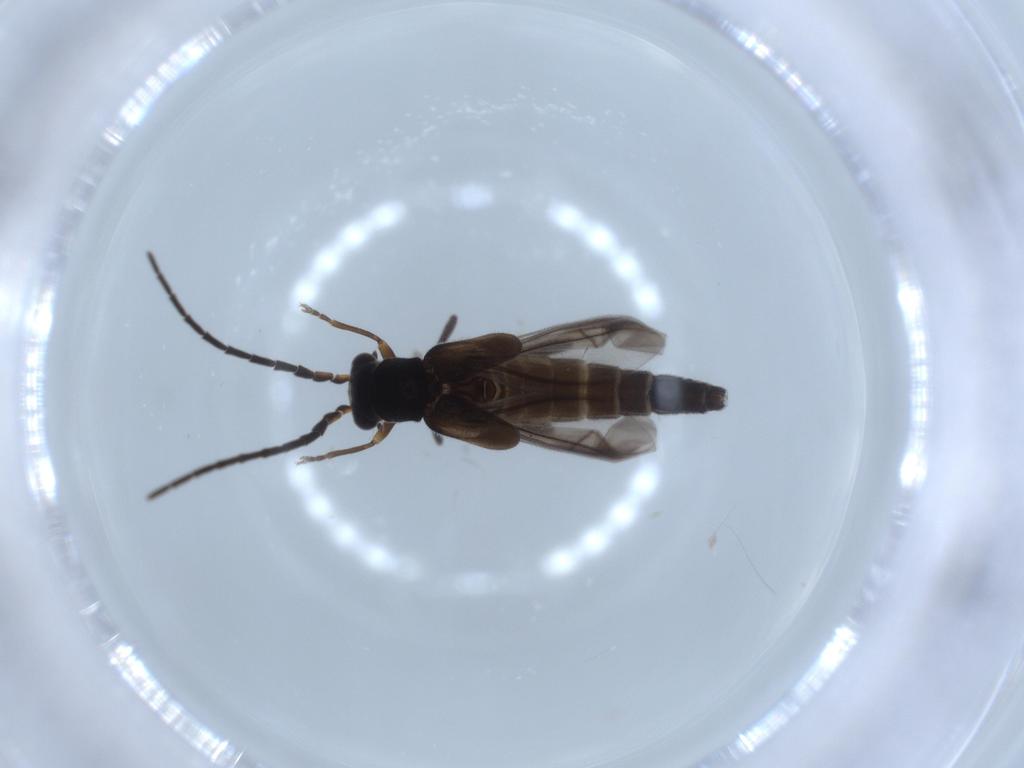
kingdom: Animalia
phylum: Arthropoda
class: Insecta
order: Coleoptera
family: Cantharidae
